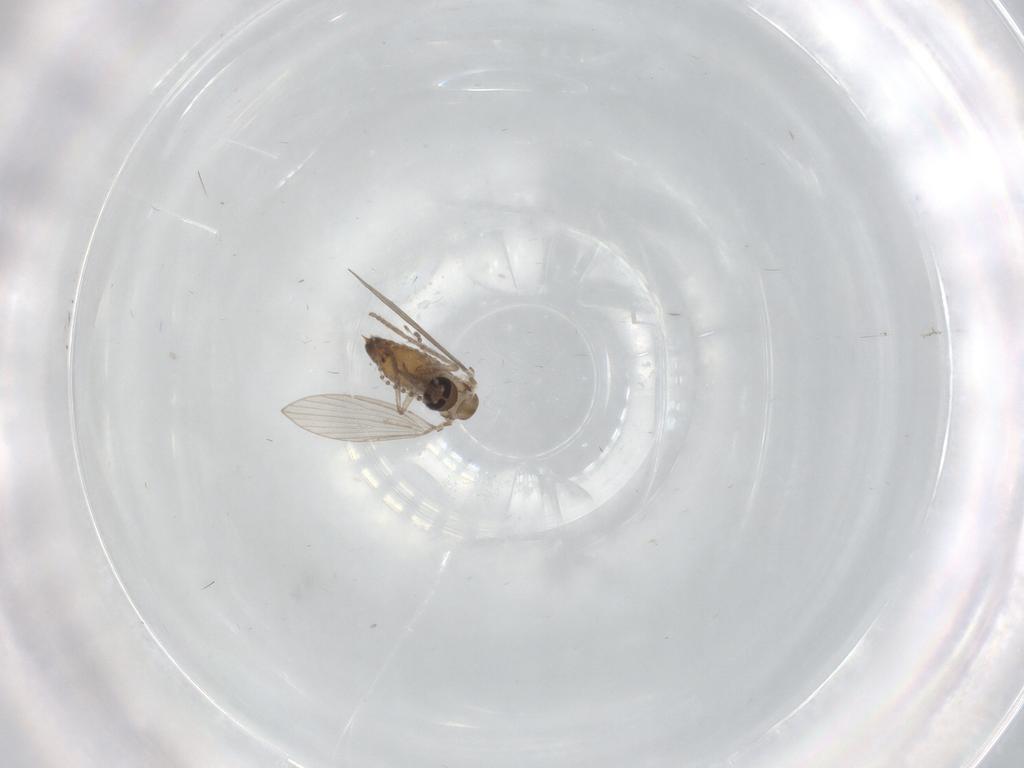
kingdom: Animalia
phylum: Arthropoda
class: Insecta
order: Diptera
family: Psychodidae
